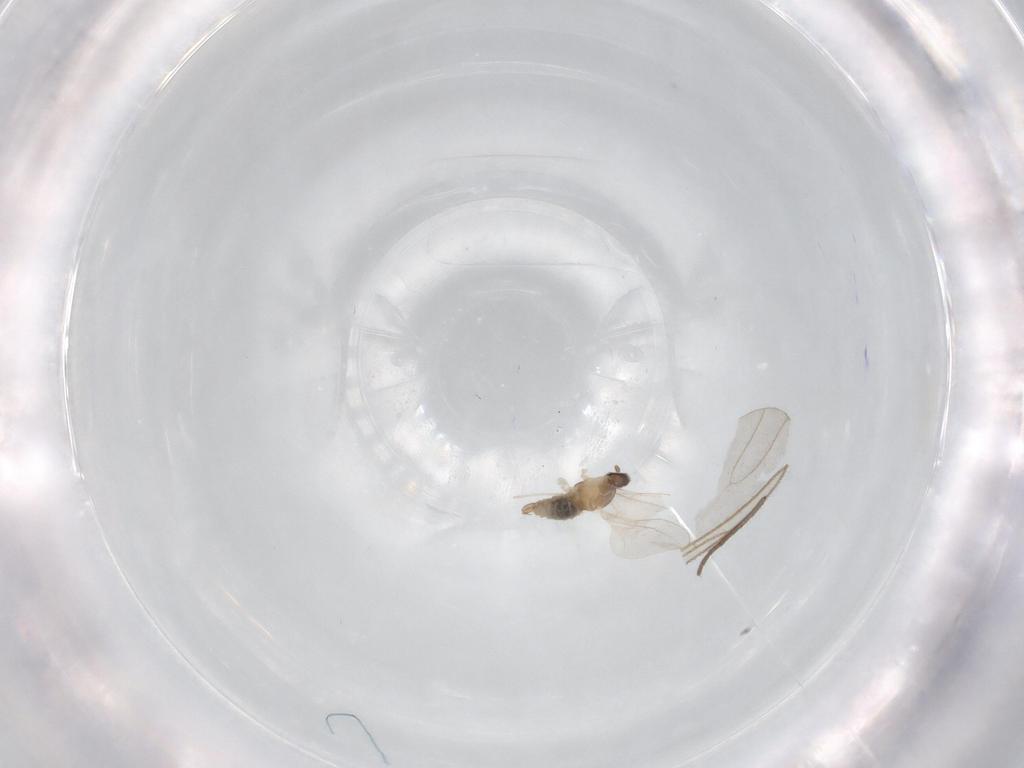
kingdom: Animalia
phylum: Arthropoda
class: Insecta
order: Diptera
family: Cecidomyiidae
